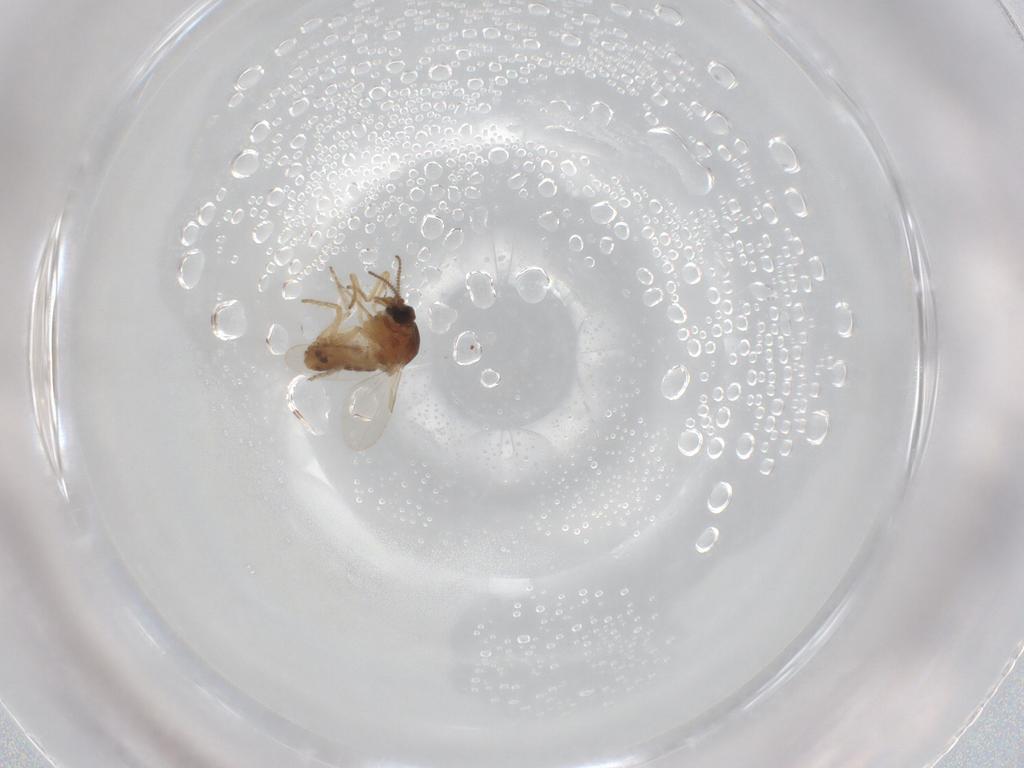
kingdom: Animalia
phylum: Arthropoda
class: Insecta
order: Diptera
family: Ceratopogonidae
